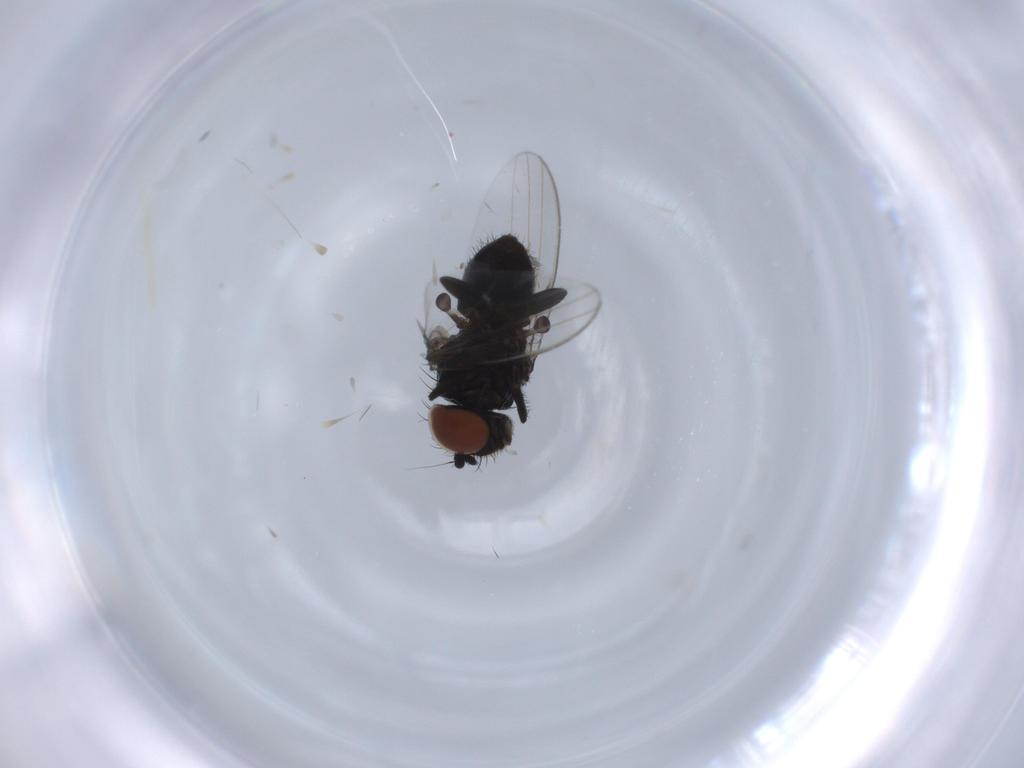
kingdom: Animalia
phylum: Arthropoda
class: Insecta
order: Diptera
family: Milichiidae
